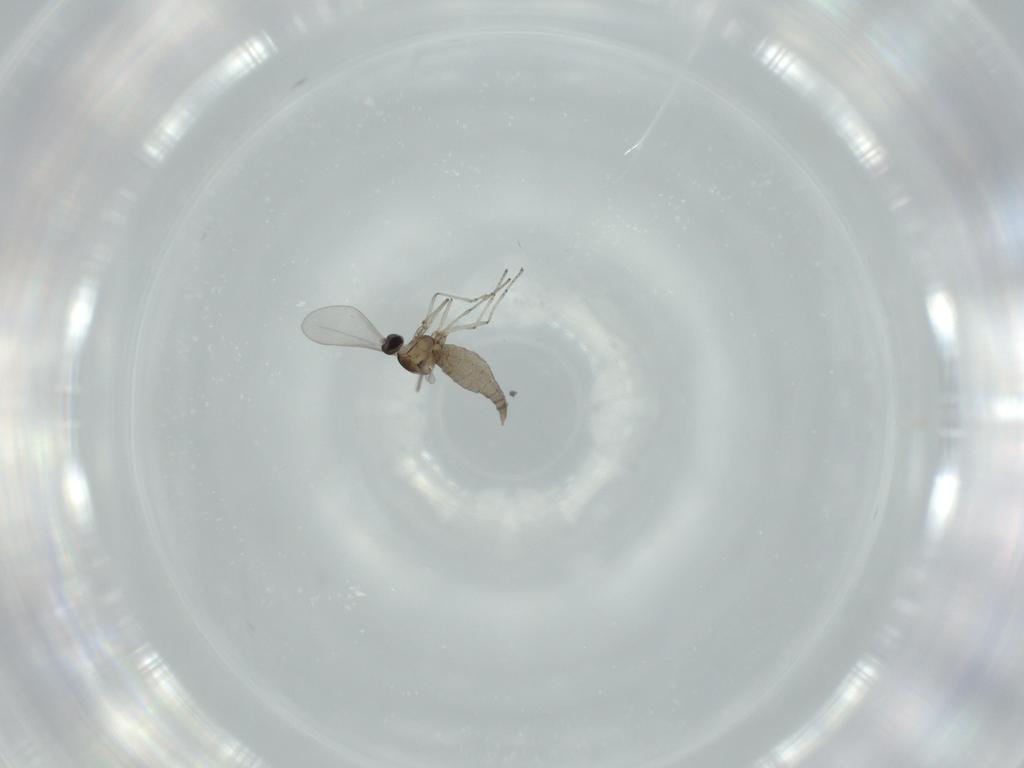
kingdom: Animalia
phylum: Arthropoda
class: Insecta
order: Diptera
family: Cecidomyiidae
